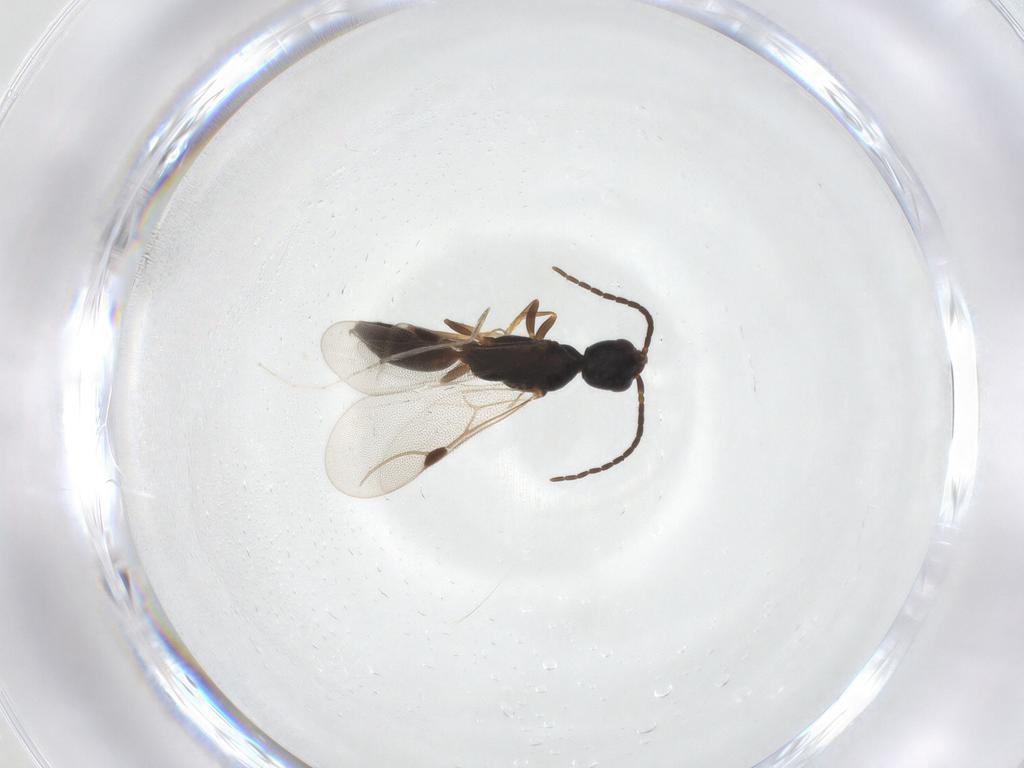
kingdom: Animalia
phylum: Arthropoda
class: Insecta
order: Hymenoptera
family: Bethylidae
